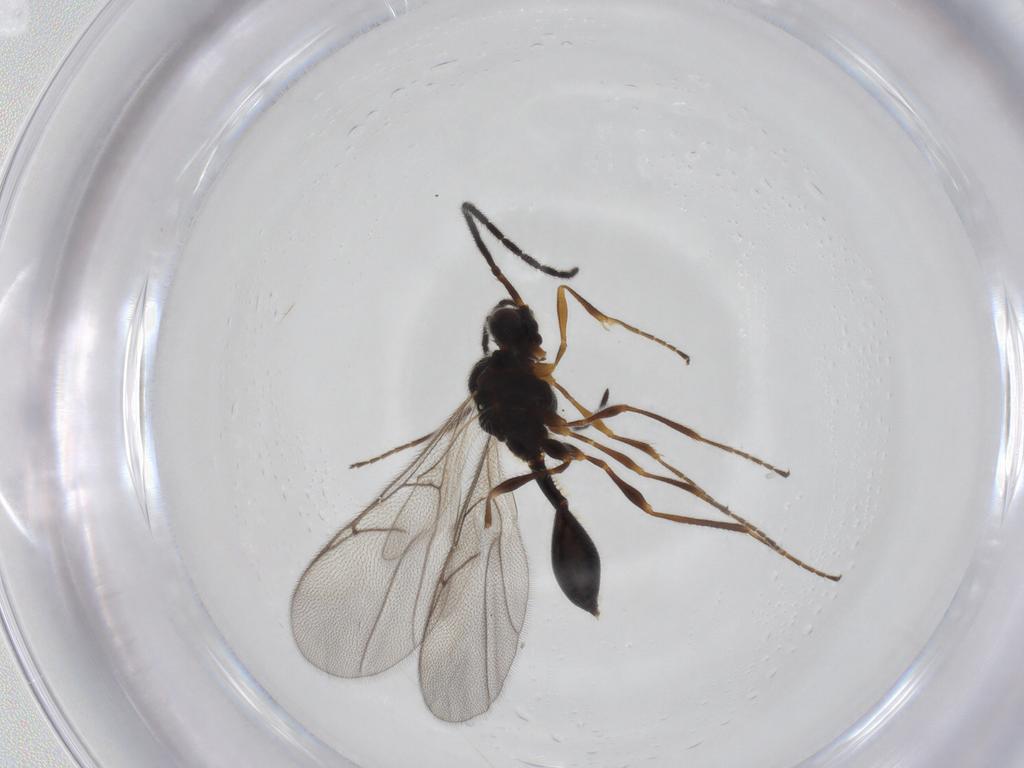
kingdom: Animalia
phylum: Arthropoda
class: Insecta
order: Hymenoptera
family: Diapriidae
